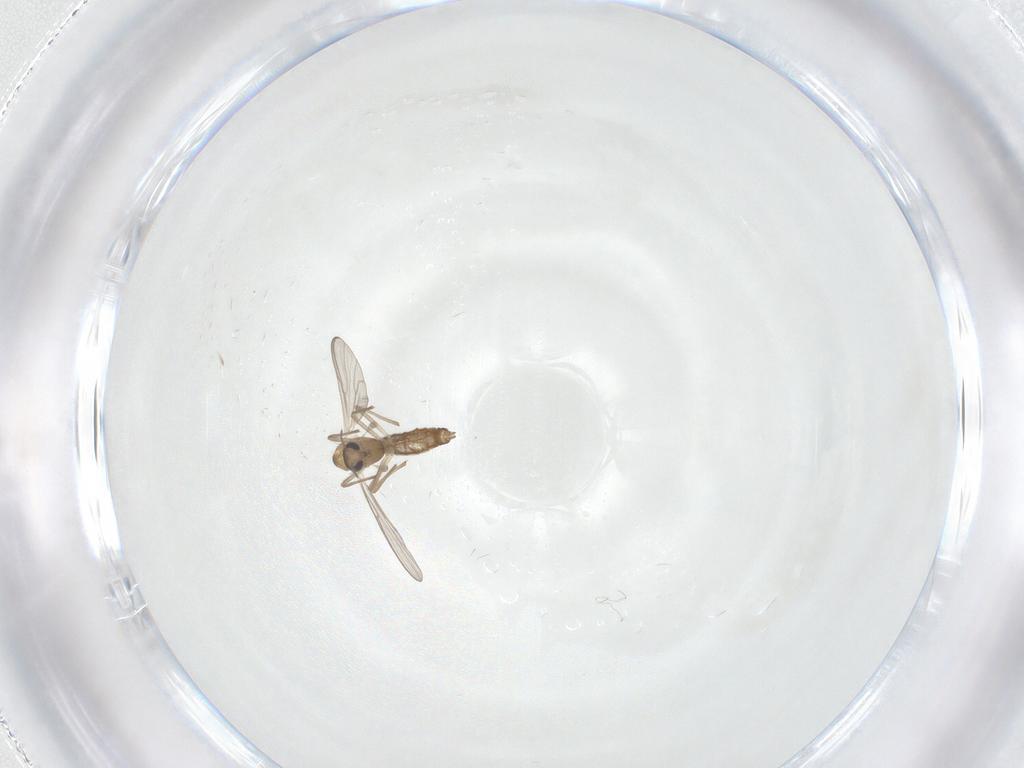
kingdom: Animalia
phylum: Arthropoda
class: Insecta
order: Diptera
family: Chironomidae
